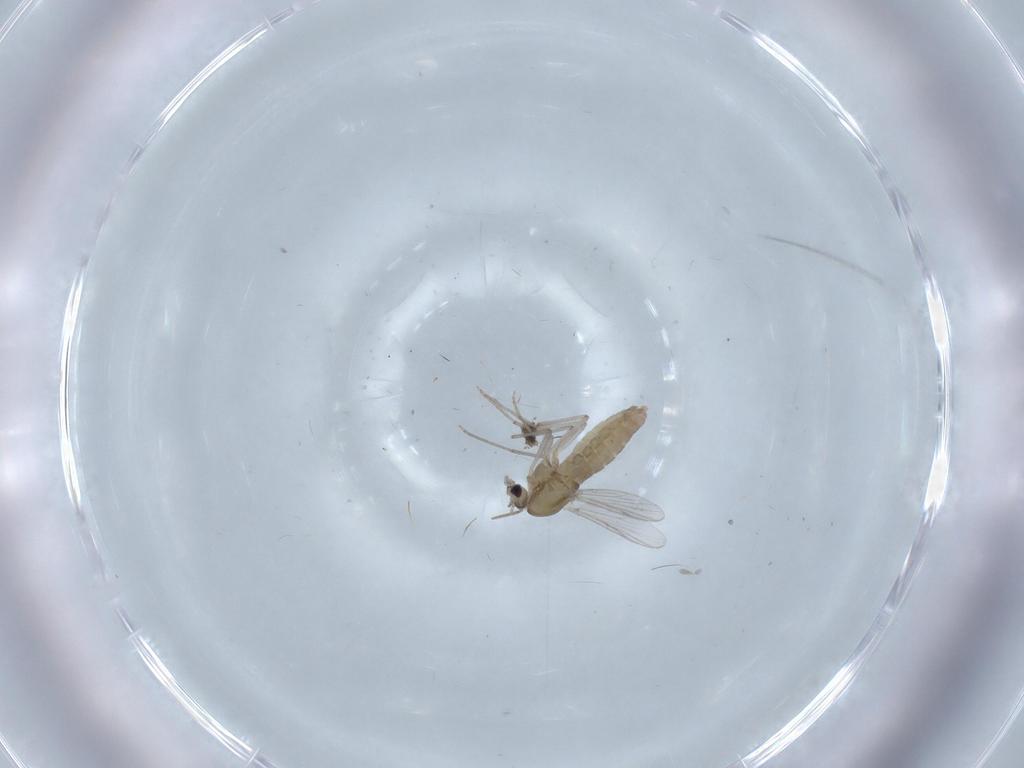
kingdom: Animalia
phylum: Arthropoda
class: Insecta
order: Diptera
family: Chironomidae
